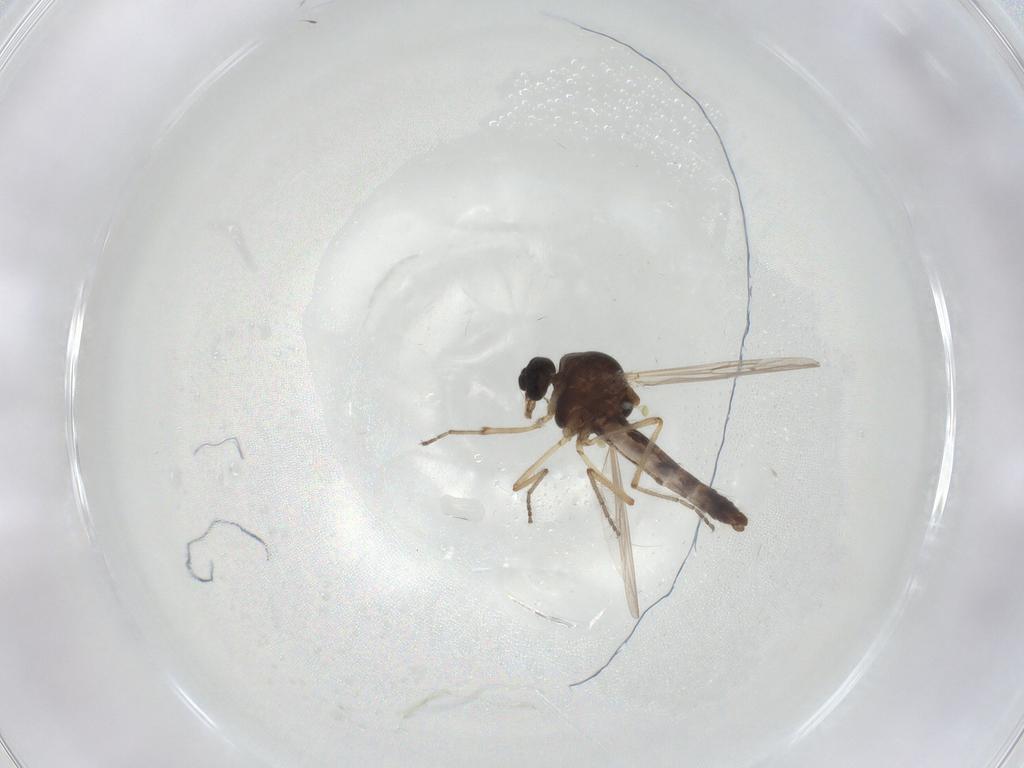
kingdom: Animalia
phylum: Arthropoda
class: Insecta
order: Diptera
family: Ceratopogonidae
